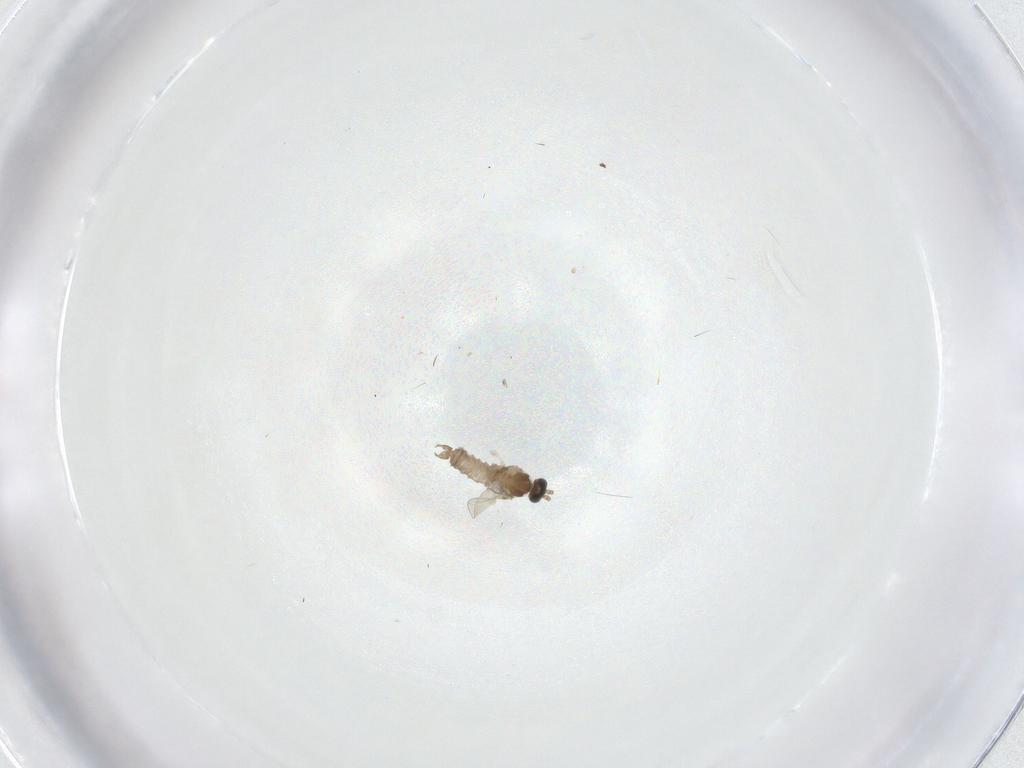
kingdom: Animalia
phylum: Arthropoda
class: Insecta
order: Diptera
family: Cecidomyiidae
